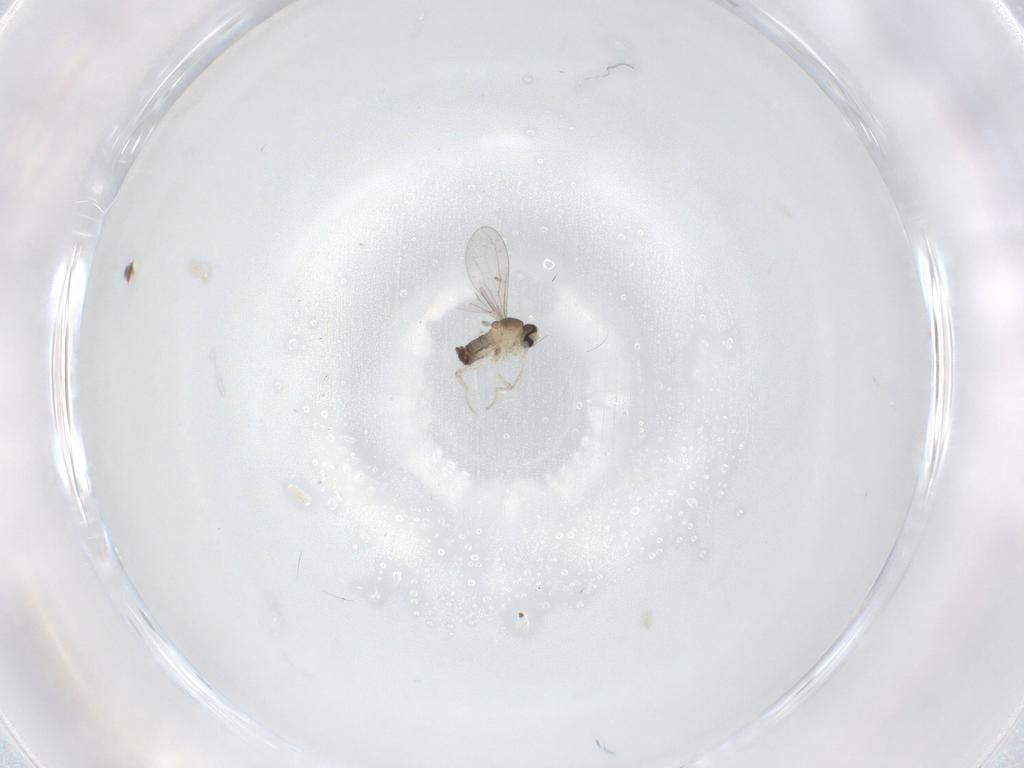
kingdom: Animalia
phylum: Arthropoda
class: Insecta
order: Diptera
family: Cecidomyiidae
